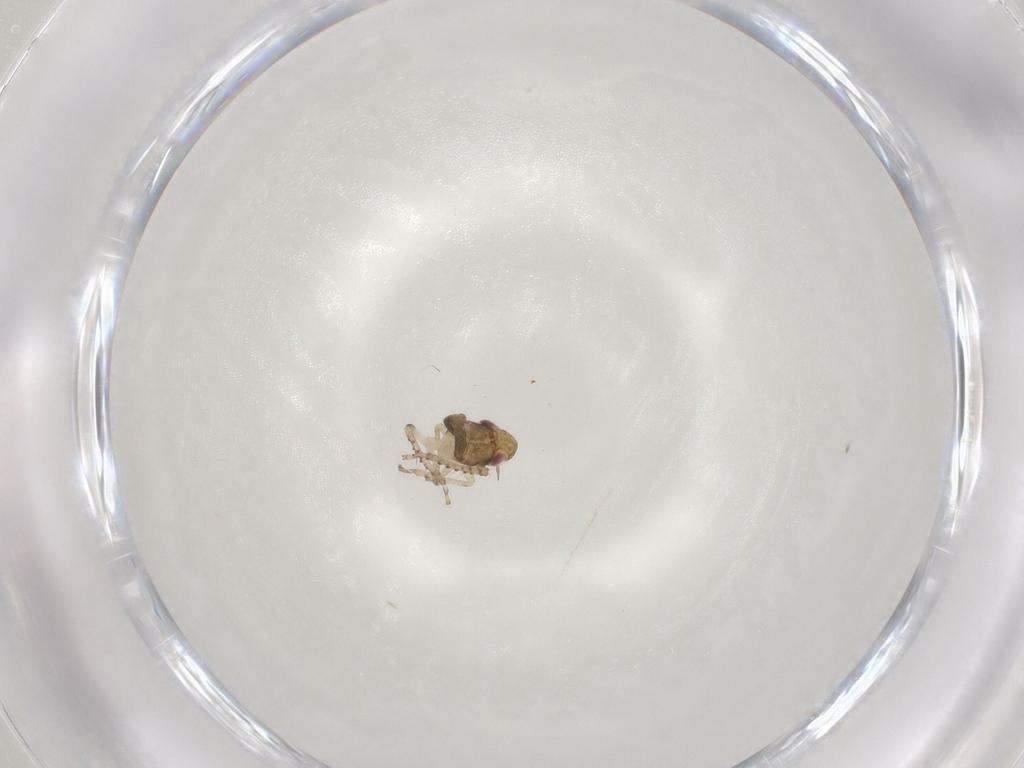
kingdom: Animalia
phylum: Arthropoda
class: Insecta
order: Hemiptera
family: Cicadellidae
